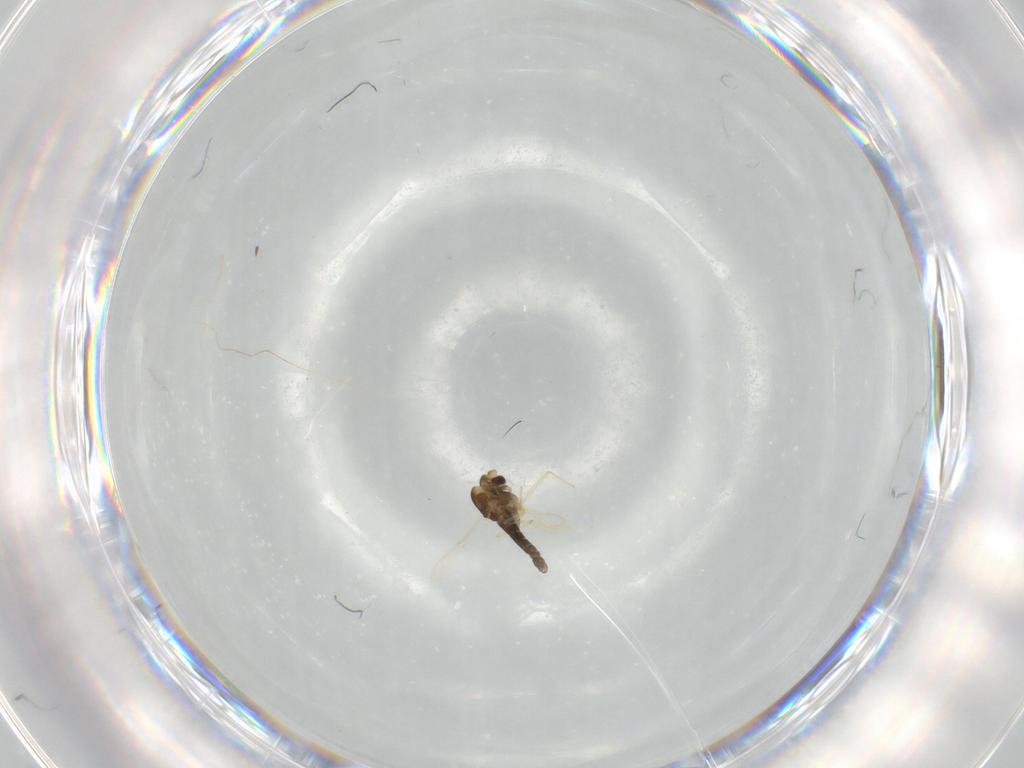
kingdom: Animalia
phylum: Arthropoda
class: Insecta
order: Diptera
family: Chironomidae
